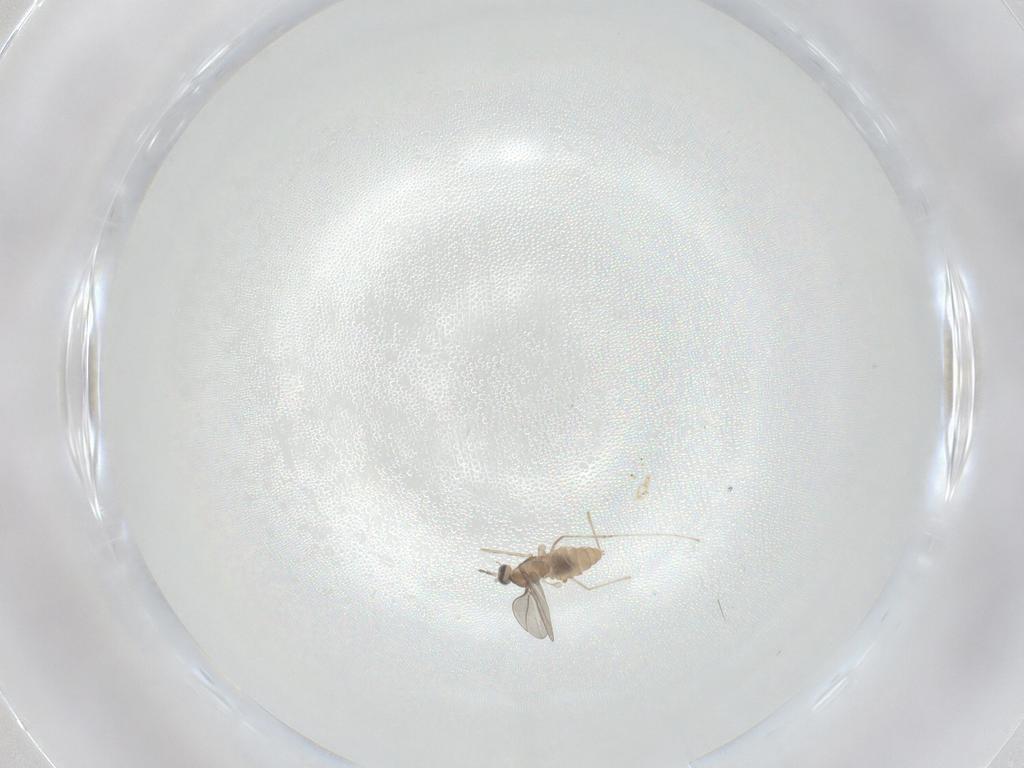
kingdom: Animalia
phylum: Arthropoda
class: Insecta
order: Diptera
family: Cecidomyiidae
